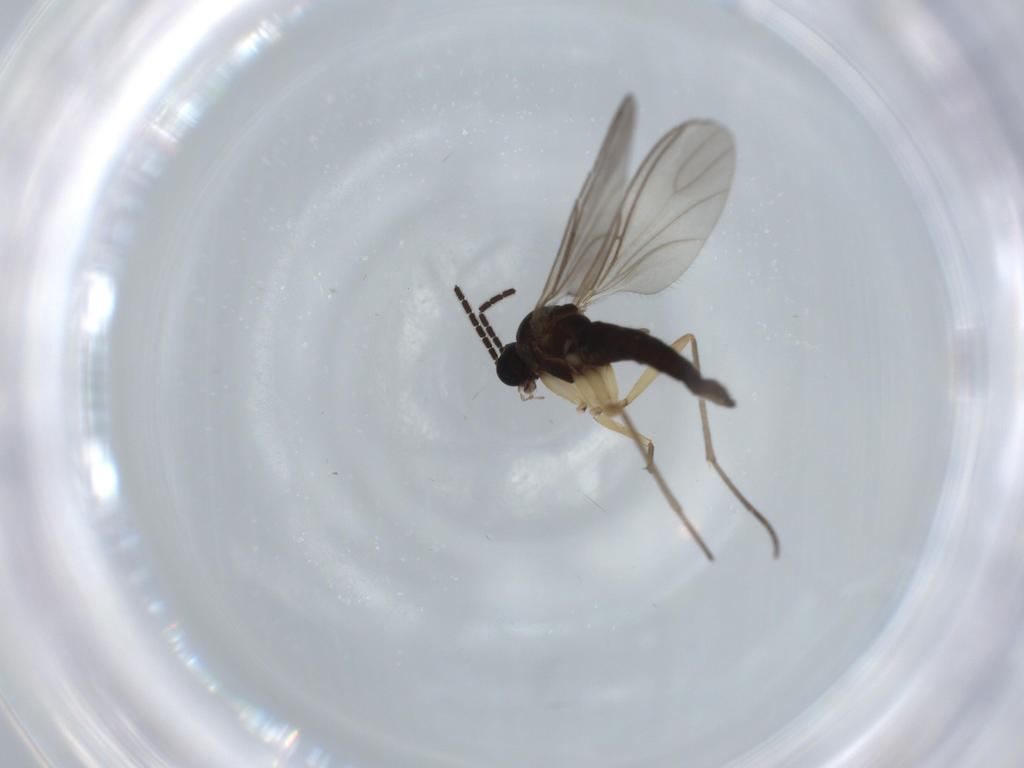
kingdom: Animalia
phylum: Arthropoda
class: Insecta
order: Diptera
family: Sciaridae
